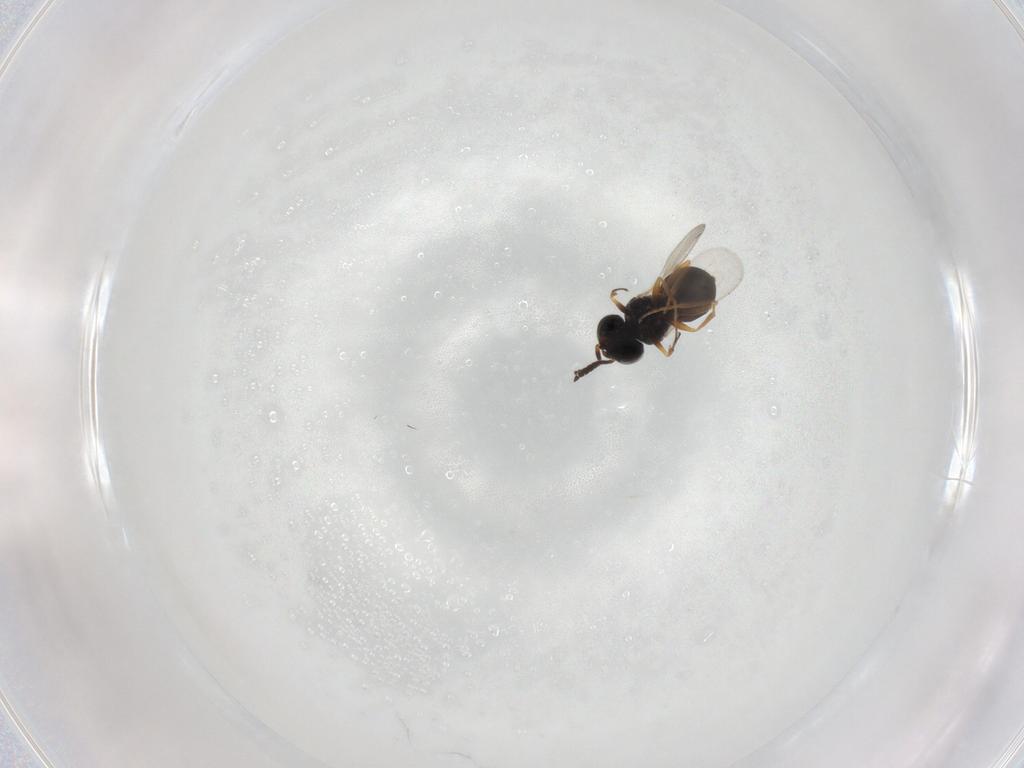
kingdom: Animalia
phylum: Arthropoda
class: Insecta
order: Hymenoptera
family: Scelionidae
